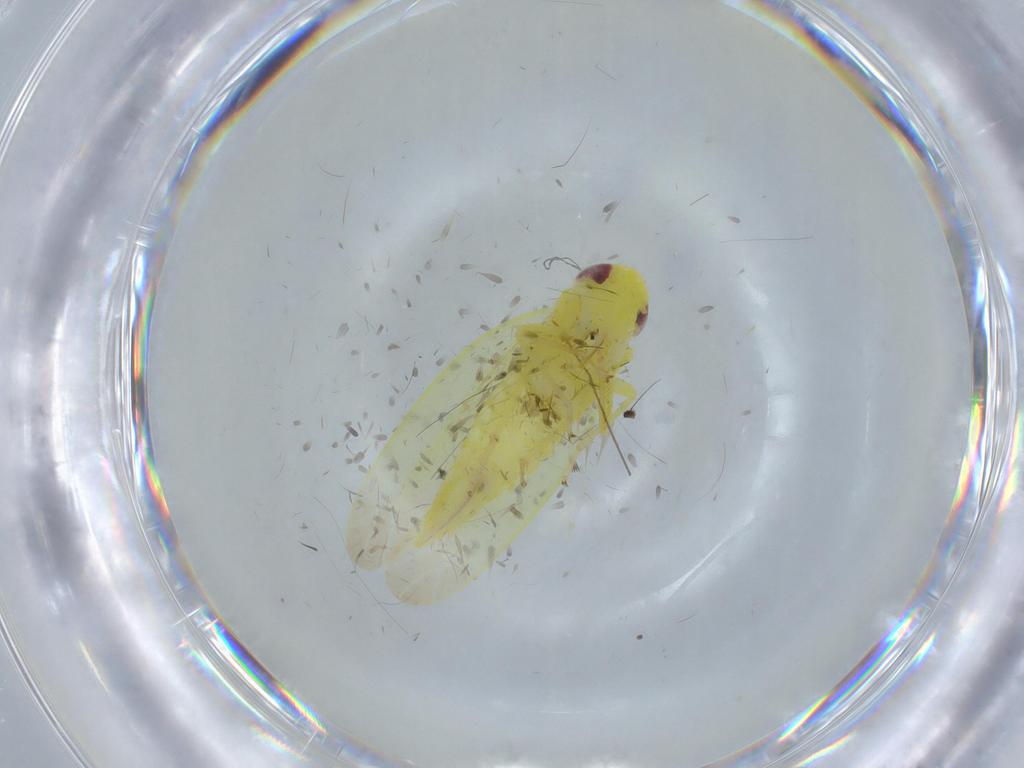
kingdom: Animalia
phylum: Arthropoda
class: Insecta
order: Hemiptera
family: Cicadellidae
